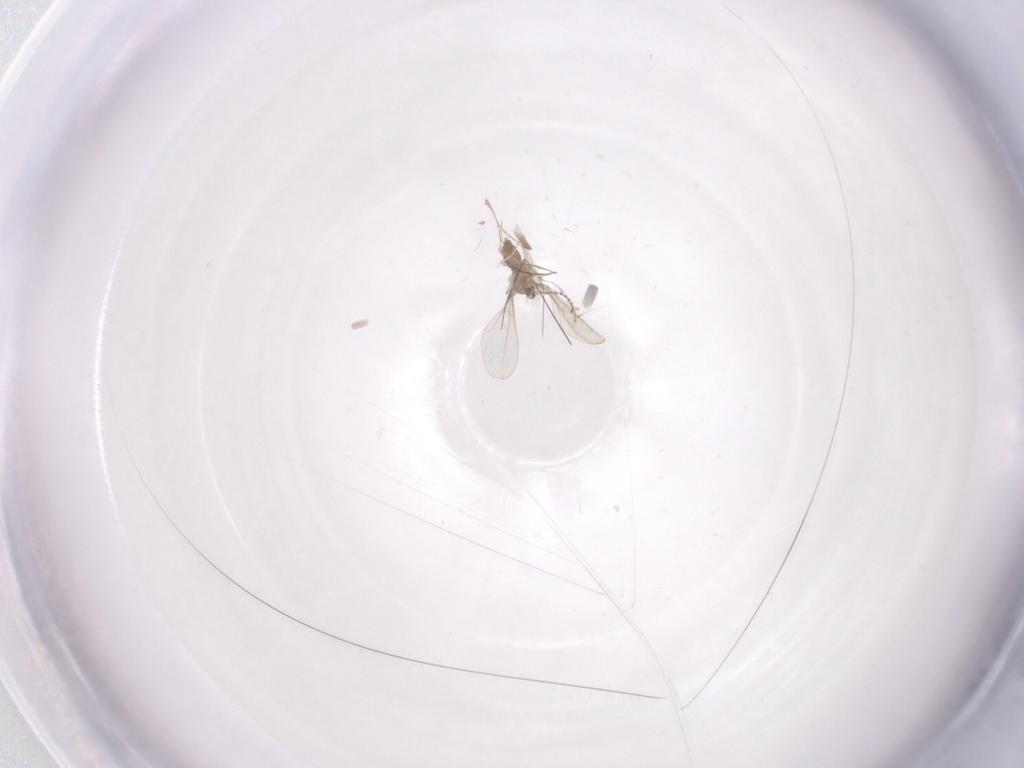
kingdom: Animalia
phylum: Arthropoda
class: Insecta
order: Diptera
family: Cecidomyiidae
